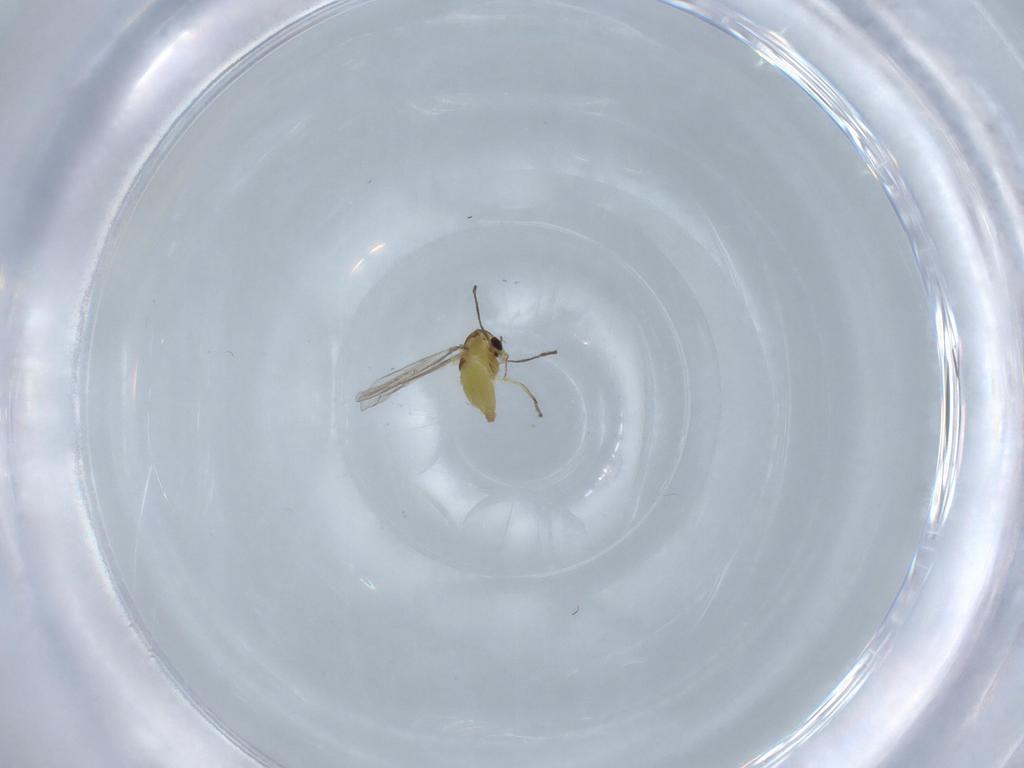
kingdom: Animalia
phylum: Arthropoda
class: Insecta
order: Diptera
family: Chironomidae
